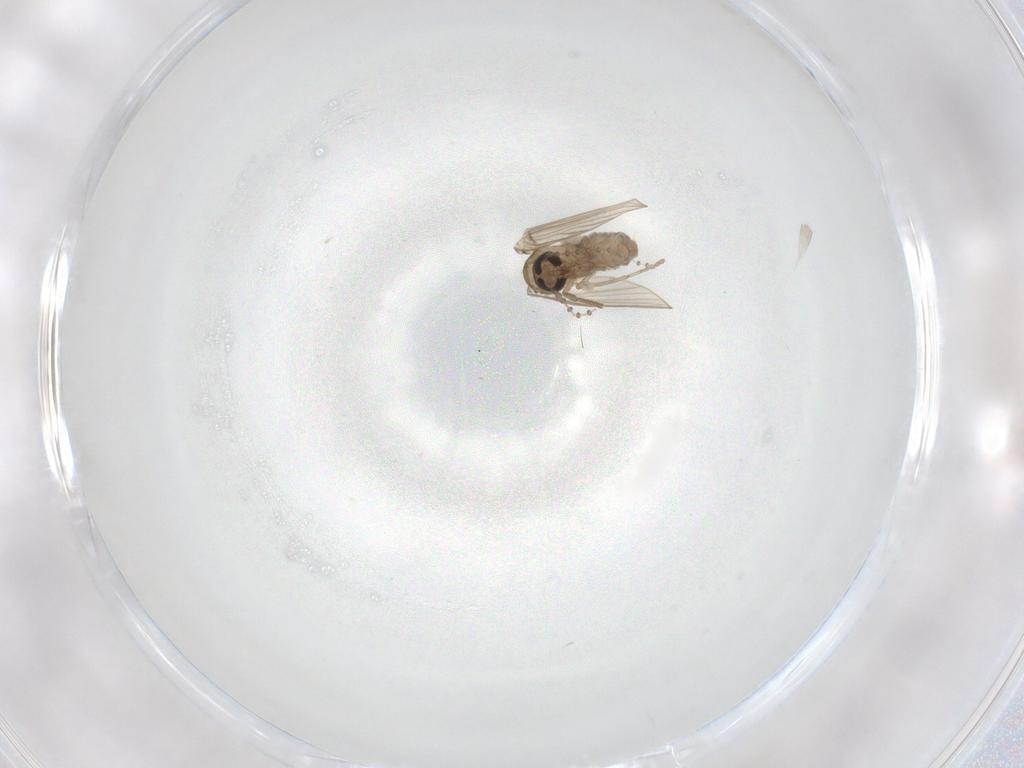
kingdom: Animalia
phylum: Arthropoda
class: Insecta
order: Diptera
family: Psychodidae
